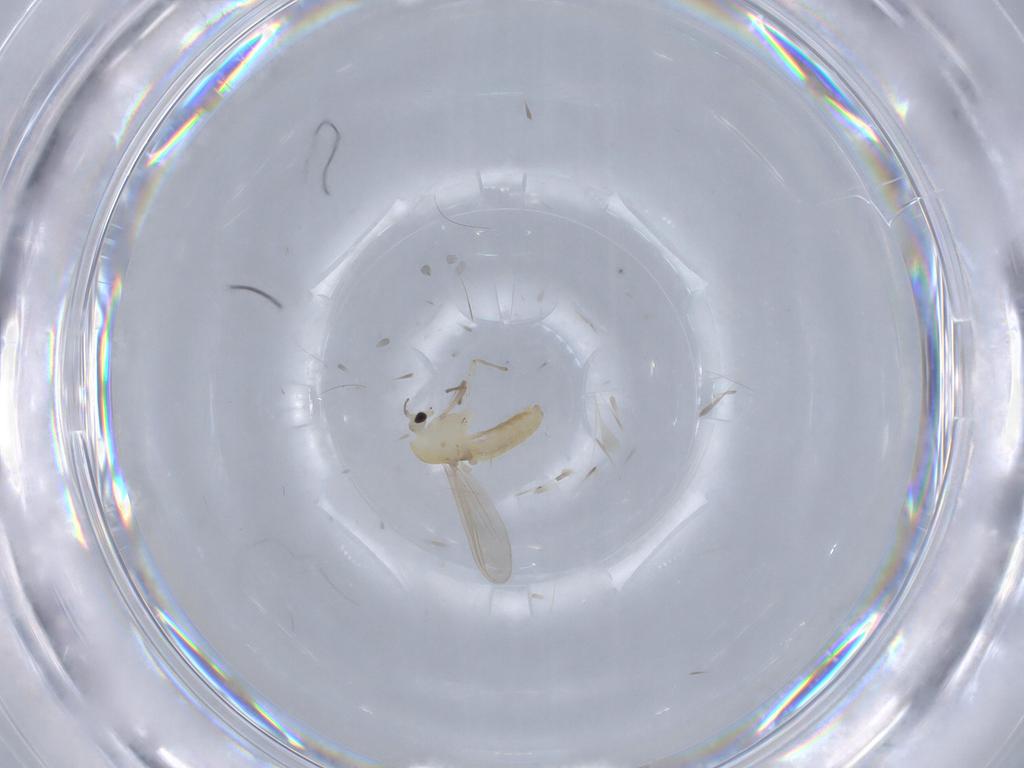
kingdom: Animalia
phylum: Arthropoda
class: Insecta
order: Diptera
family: Chironomidae
